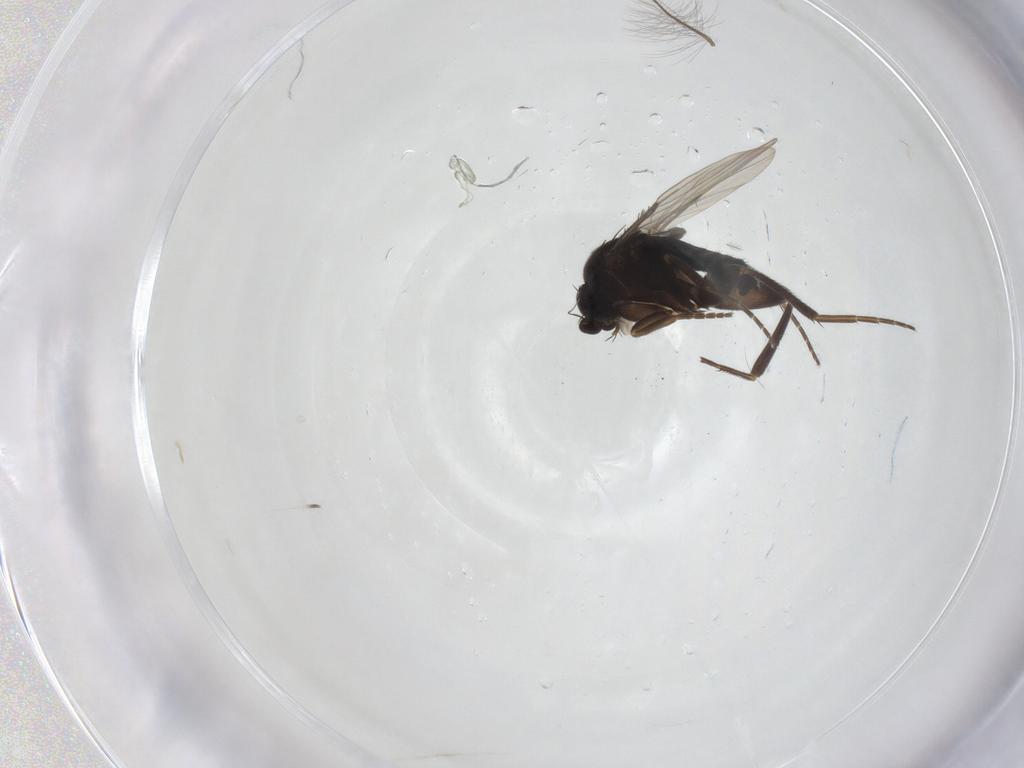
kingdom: Animalia
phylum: Arthropoda
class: Insecta
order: Diptera
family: Chironomidae
